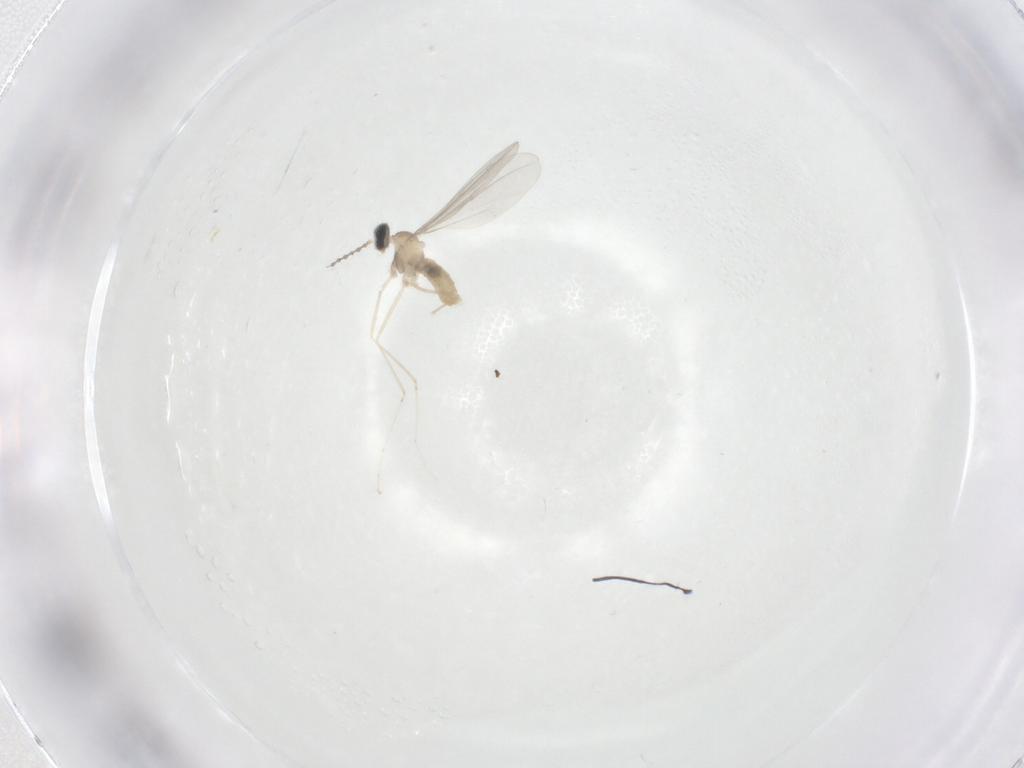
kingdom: Animalia
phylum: Arthropoda
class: Insecta
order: Diptera
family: Cecidomyiidae
